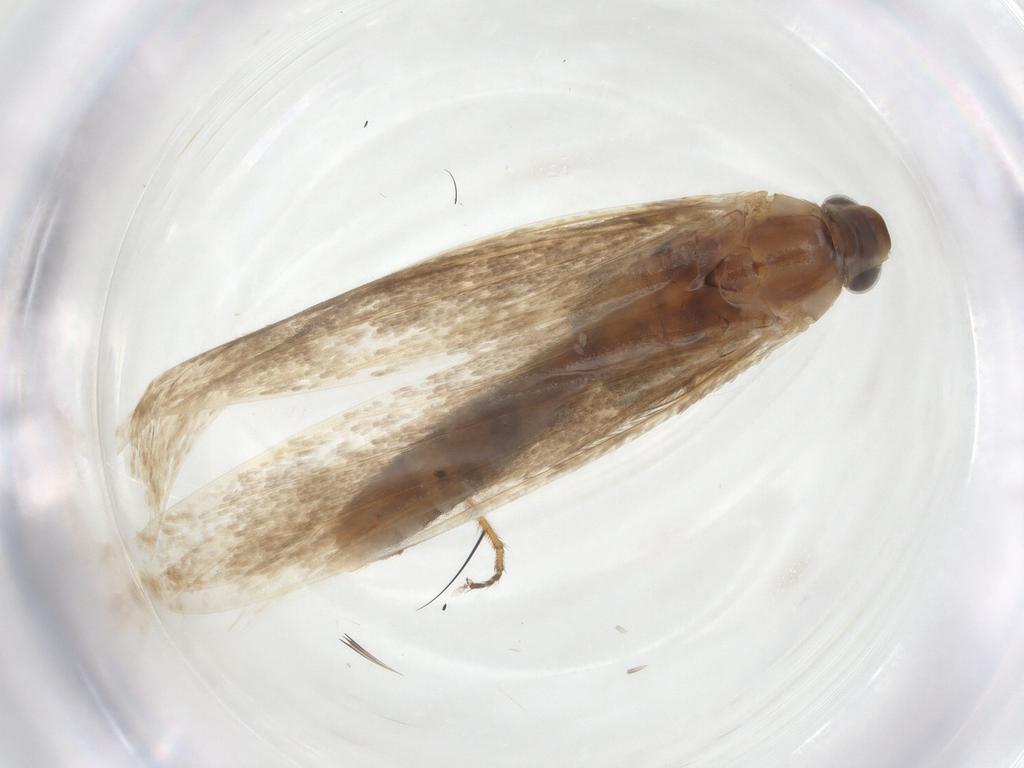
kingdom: Animalia
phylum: Arthropoda
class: Insecta
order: Lepidoptera
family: Coleophoridae
